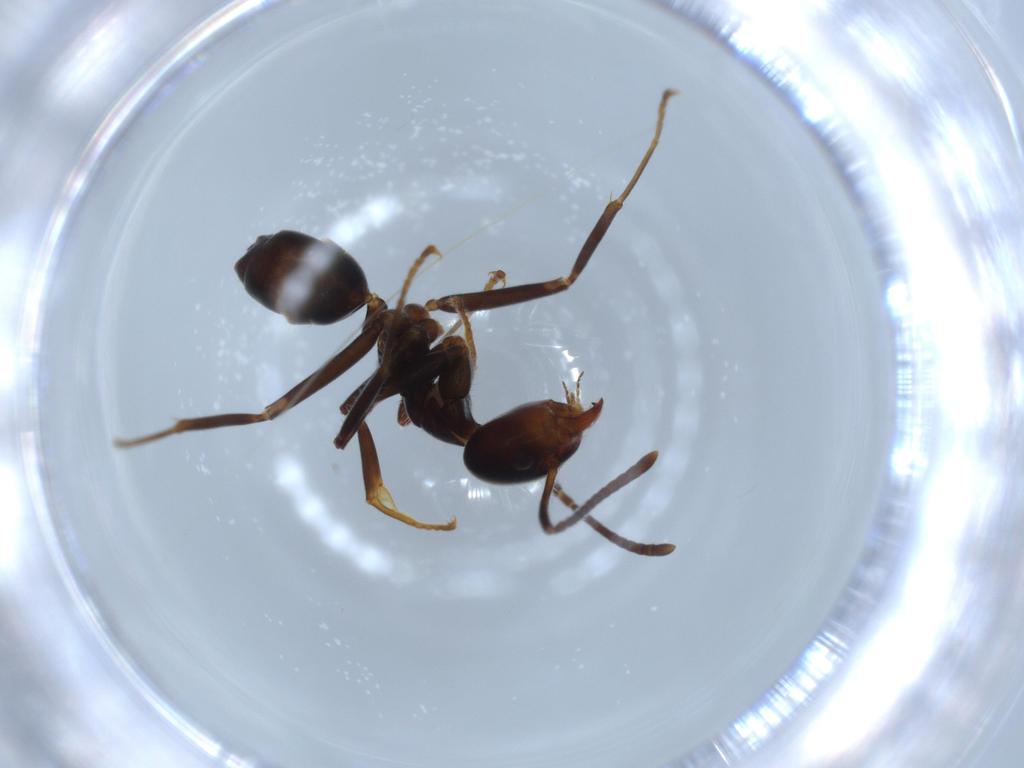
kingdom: Animalia
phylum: Arthropoda
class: Insecta
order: Hymenoptera
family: Formicidae
